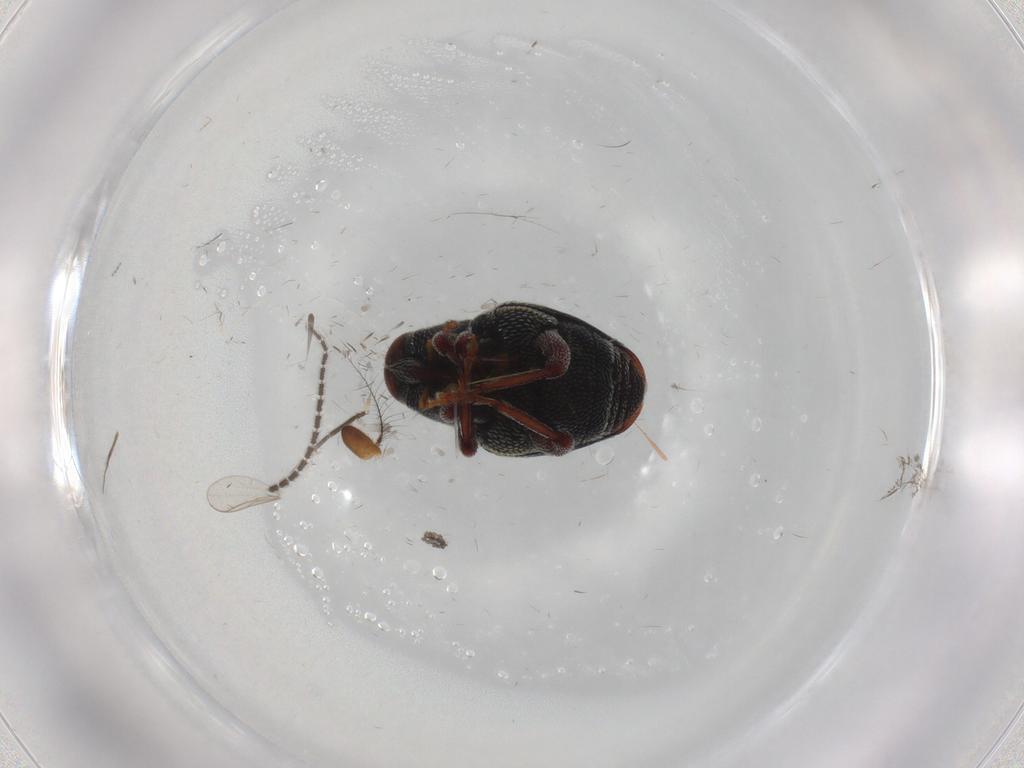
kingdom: Animalia
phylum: Arthropoda
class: Insecta
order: Coleoptera
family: Curculionidae
